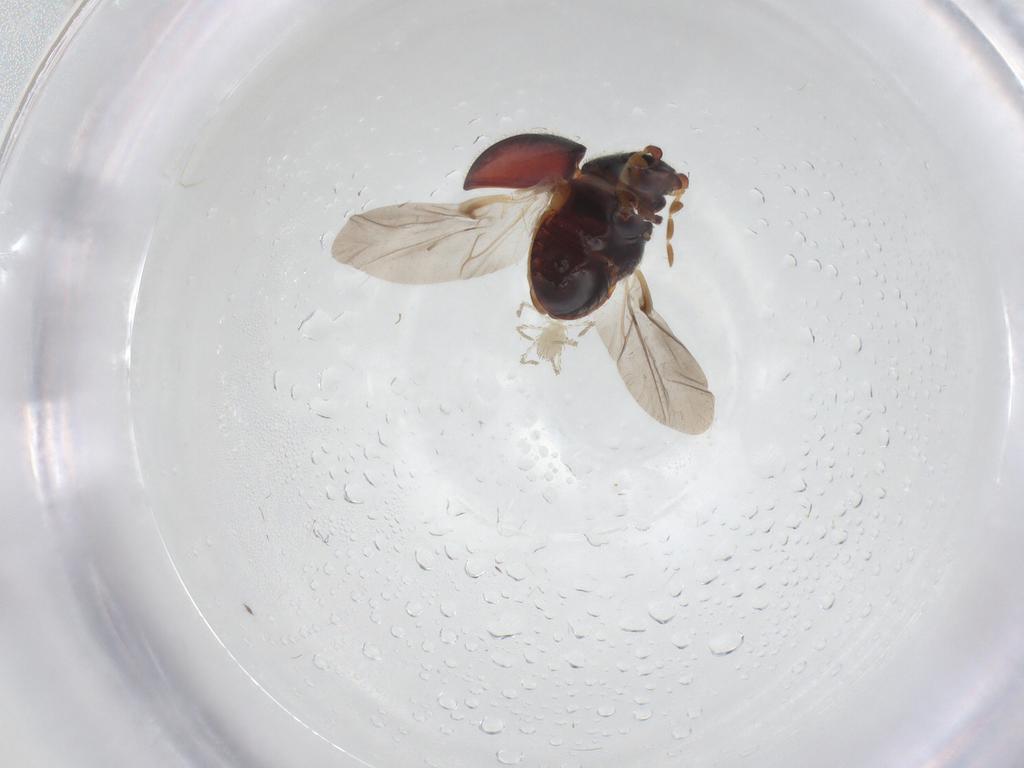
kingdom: Animalia
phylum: Arthropoda
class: Insecta
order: Coleoptera
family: Ptinidae
